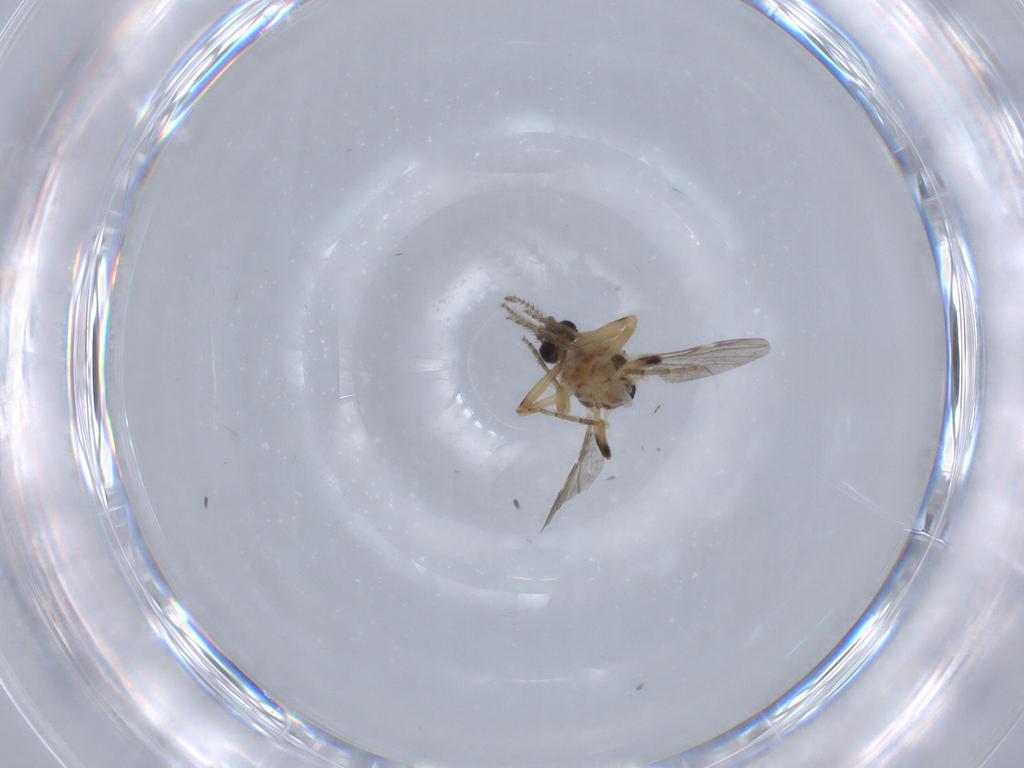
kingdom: Animalia
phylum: Arthropoda
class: Insecta
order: Diptera
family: Ceratopogonidae
